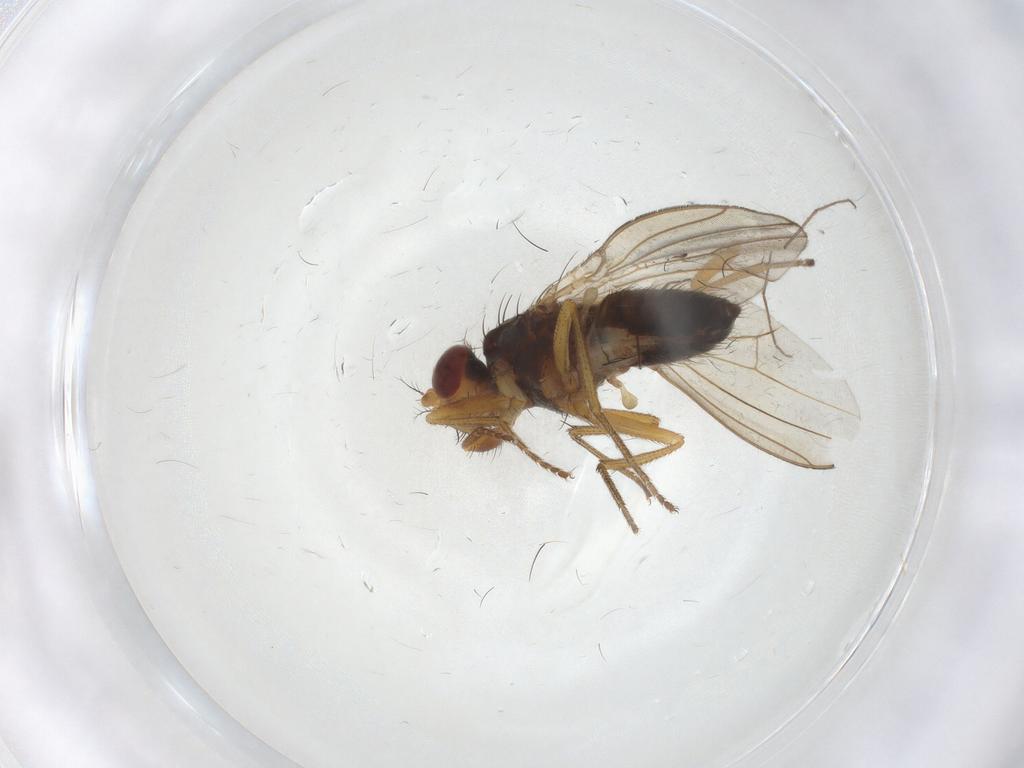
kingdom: Animalia
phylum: Arthropoda
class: Insecta
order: Diptera
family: Drosophilidae
